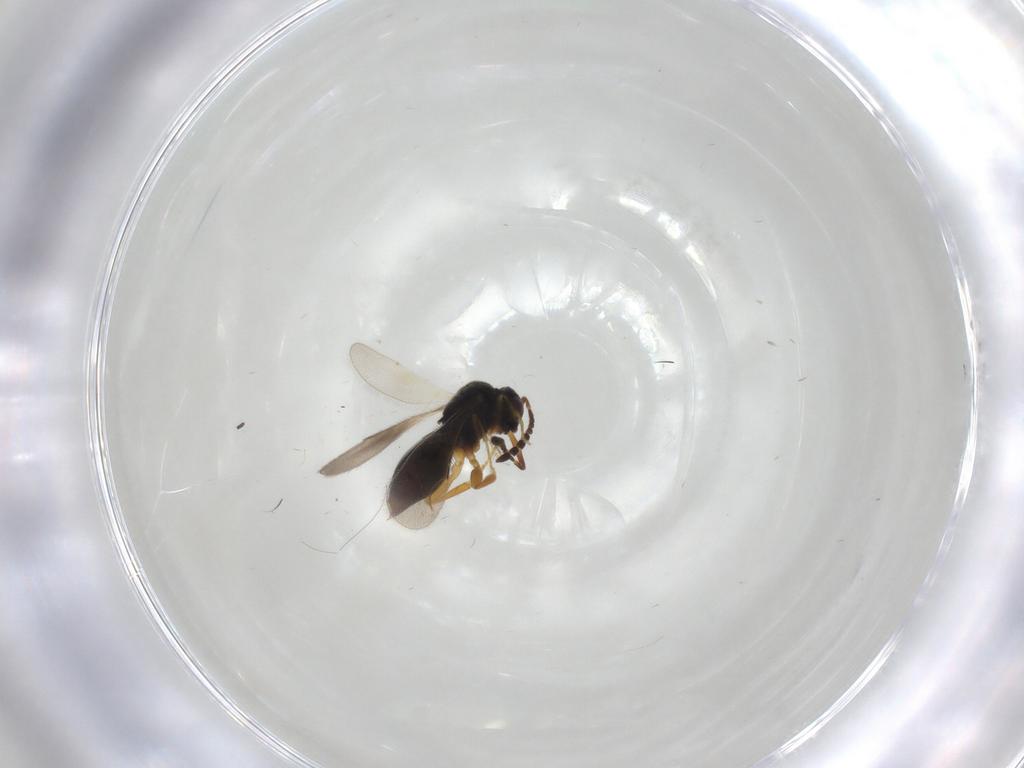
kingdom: Animalia
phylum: Arthropoda
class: Insecta
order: Hymenoptera
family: Ceraphronidae
